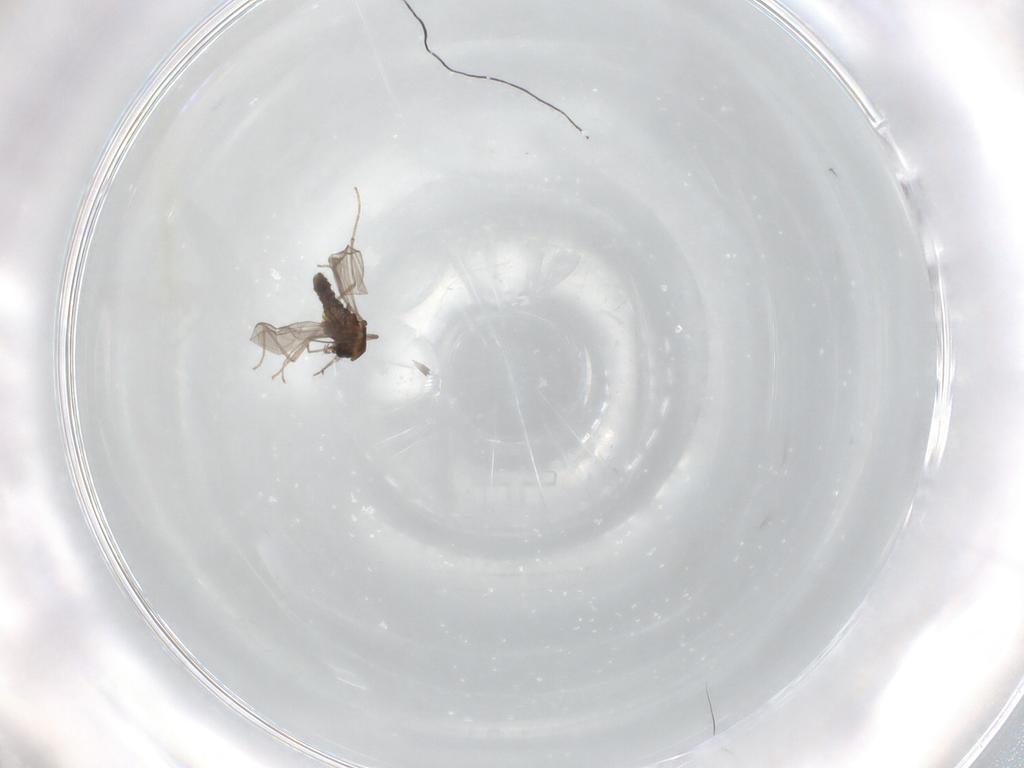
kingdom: Animalia
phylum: Arthropoda
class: Insecta
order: Diptera
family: Chironomidae
